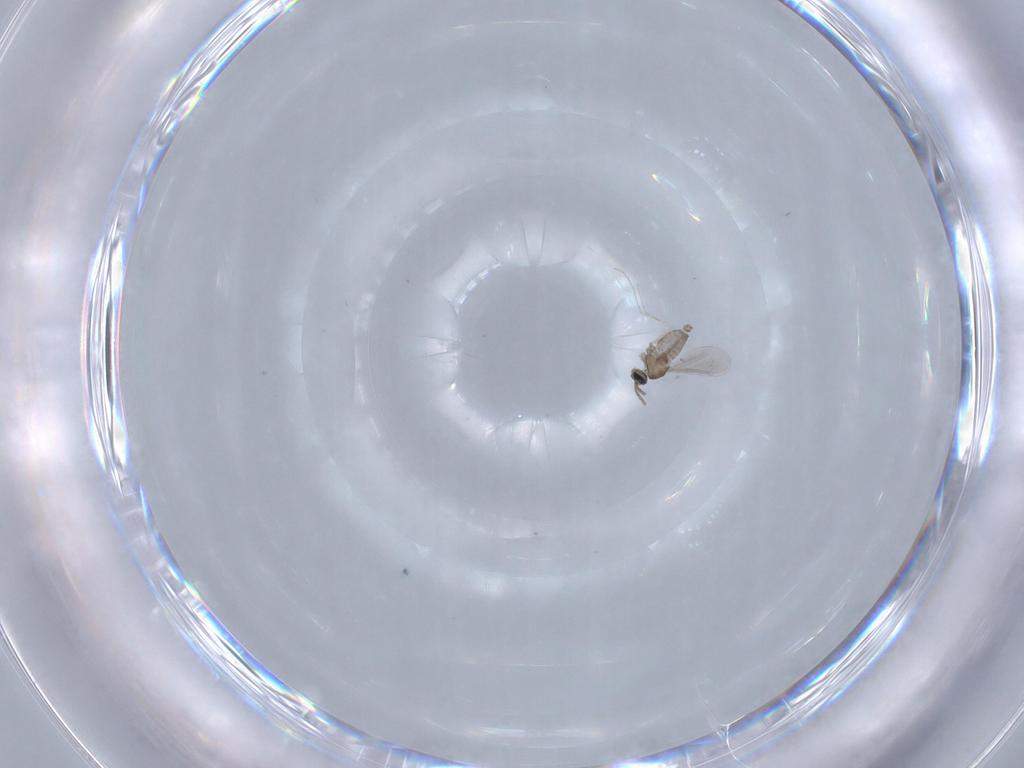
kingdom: Animalia
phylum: Arthropoda
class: Insecta
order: Diptera
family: Cecidomyiidae
